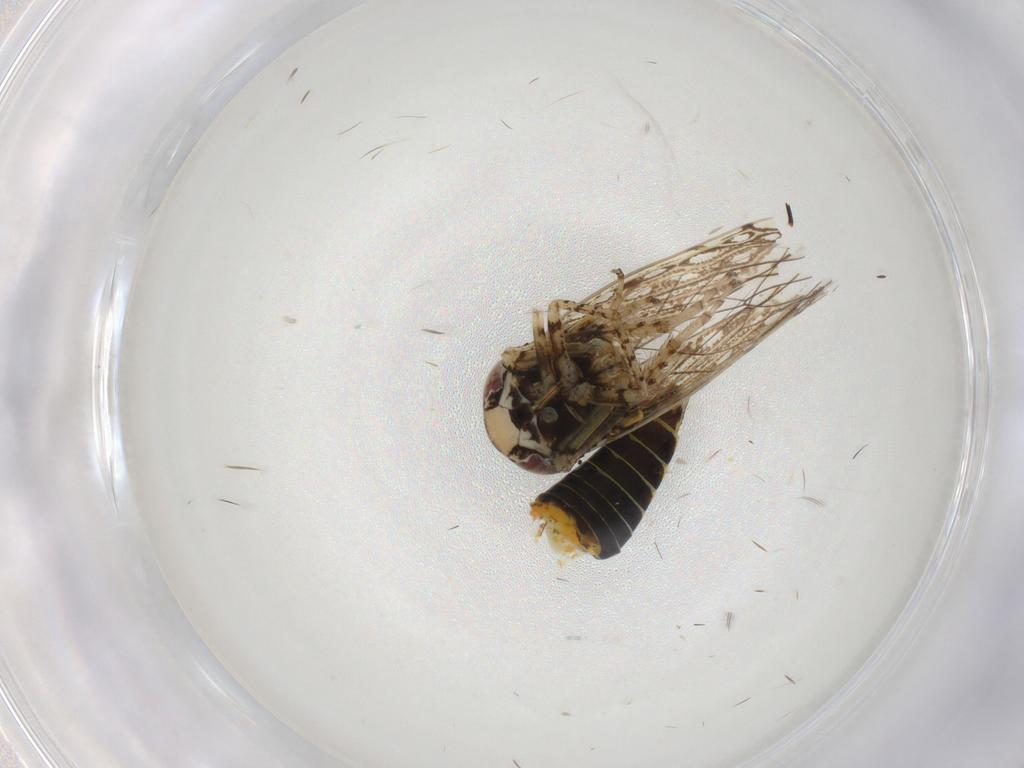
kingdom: Animalia
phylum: Arthropoda
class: Insecta
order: Hemiptera
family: Cicadellidae
